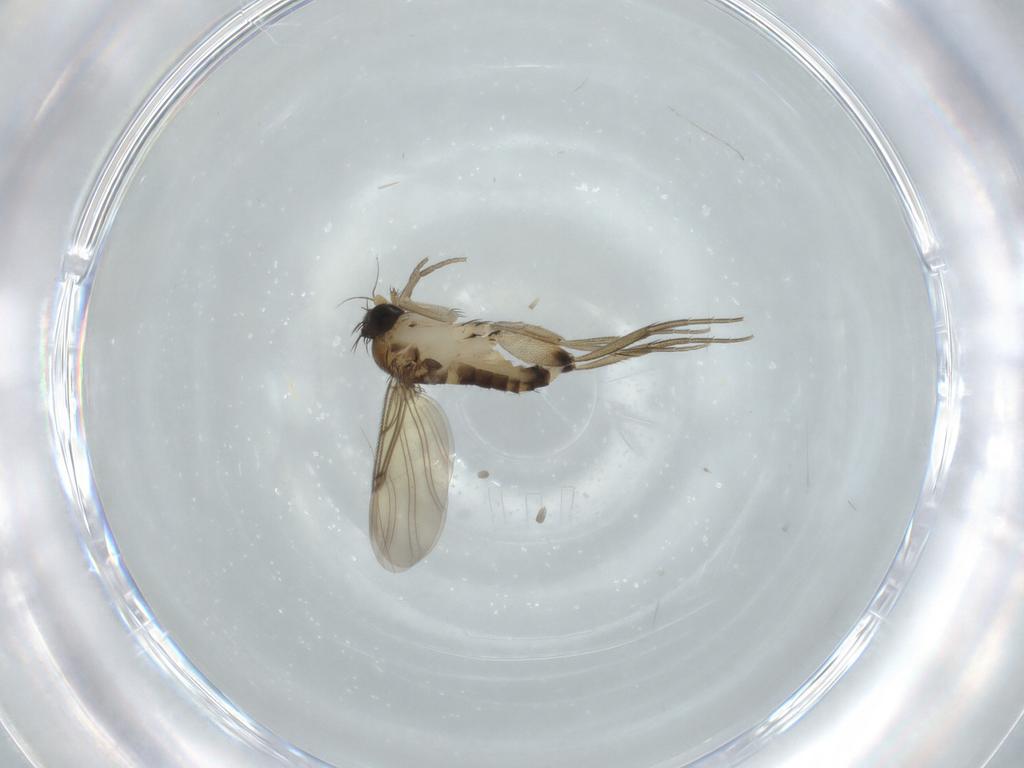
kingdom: Animalia
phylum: Arthropoda
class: Insecta
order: Diptera
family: Phoridae
